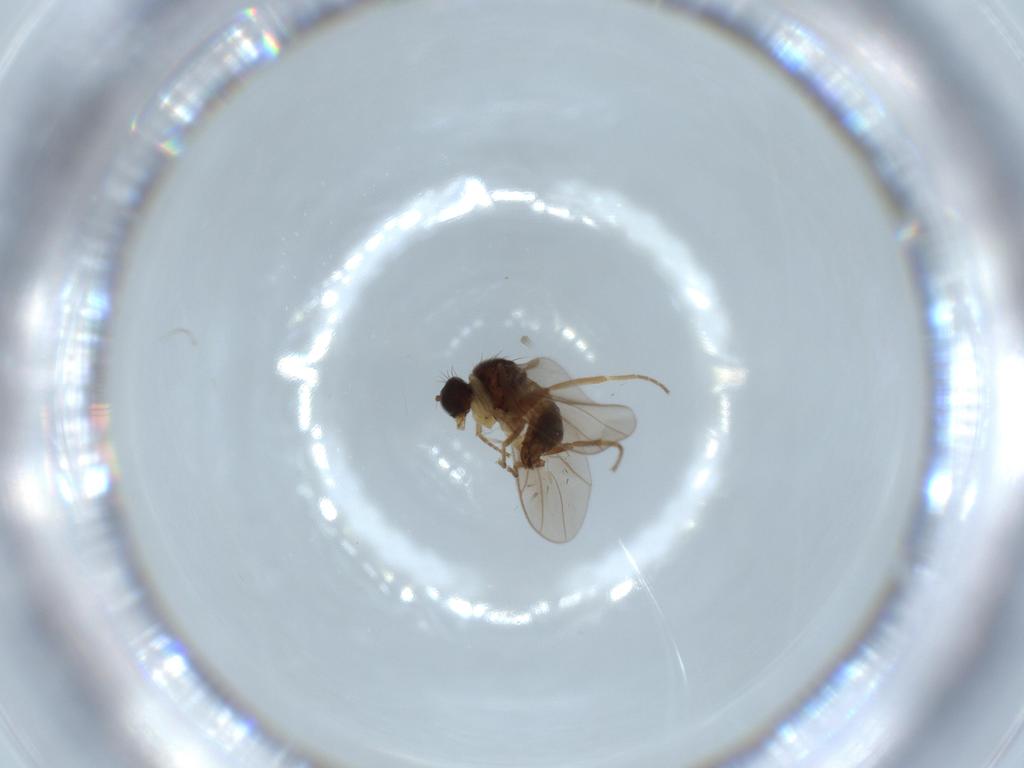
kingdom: Animalia
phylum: Arthropoda
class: Insecta
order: Diptera
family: Hybotidae
